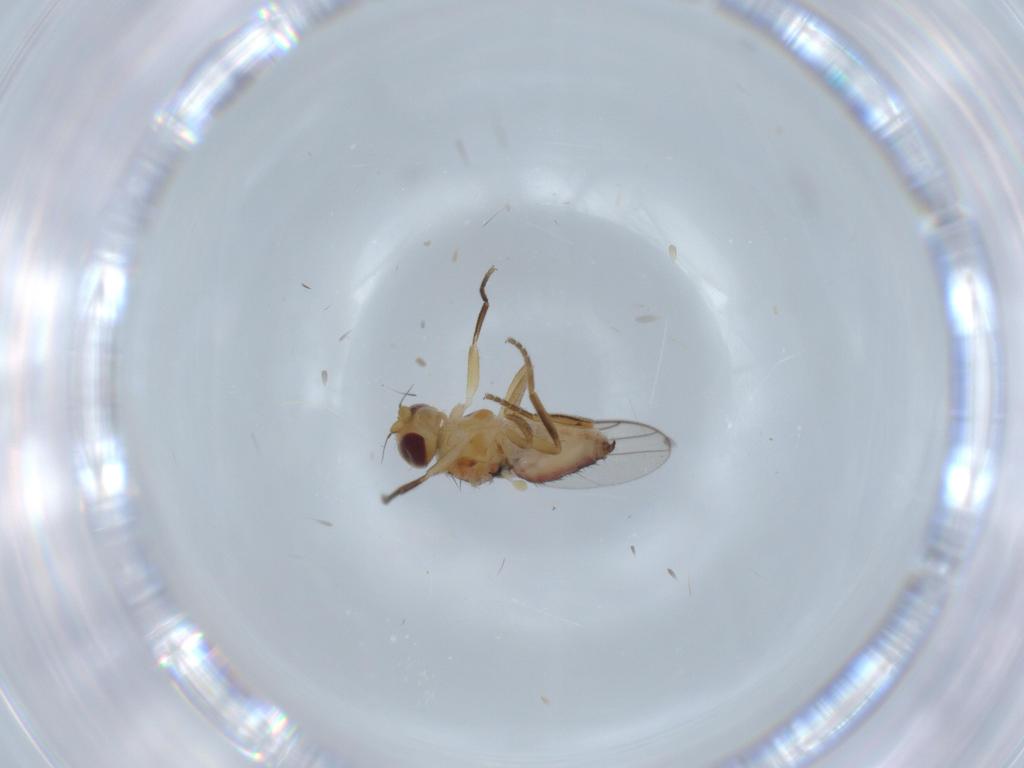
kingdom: Animalia
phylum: Arthropoda
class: Insecta
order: Diptera
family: Chloropidae
